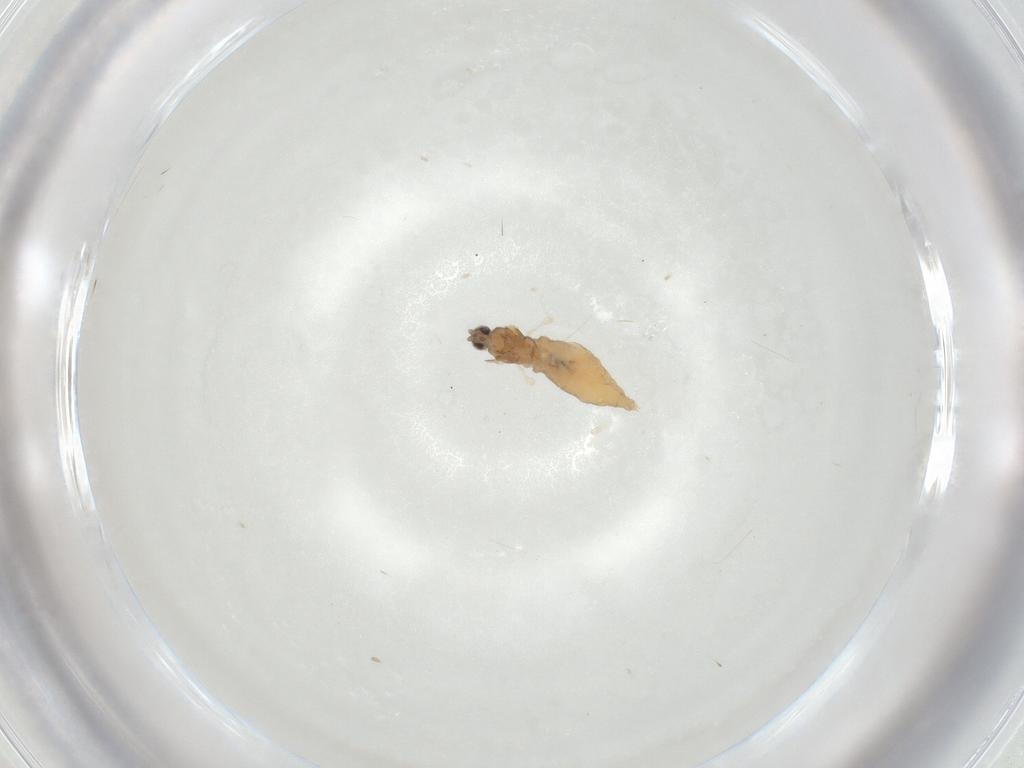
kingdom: Animalia
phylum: Arthropoda
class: Insecta
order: Diptera
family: Cecidomyiidae
